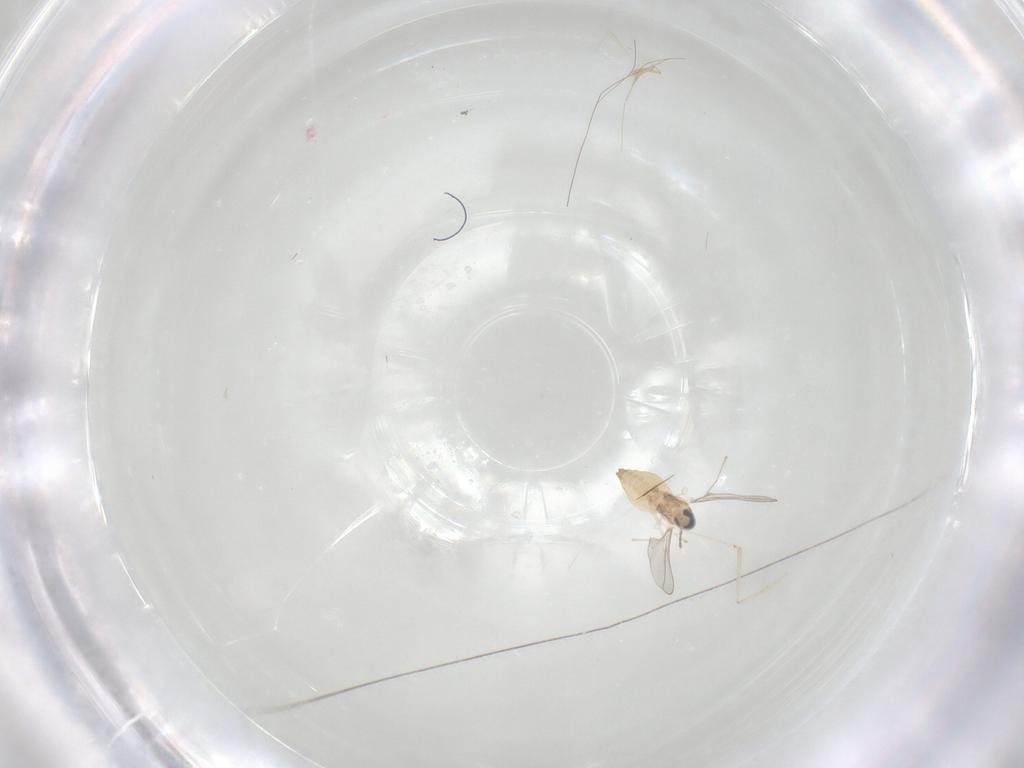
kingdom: Animalia
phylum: Arthropoda
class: Insecta
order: Diptera
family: Cecidomyiidae
